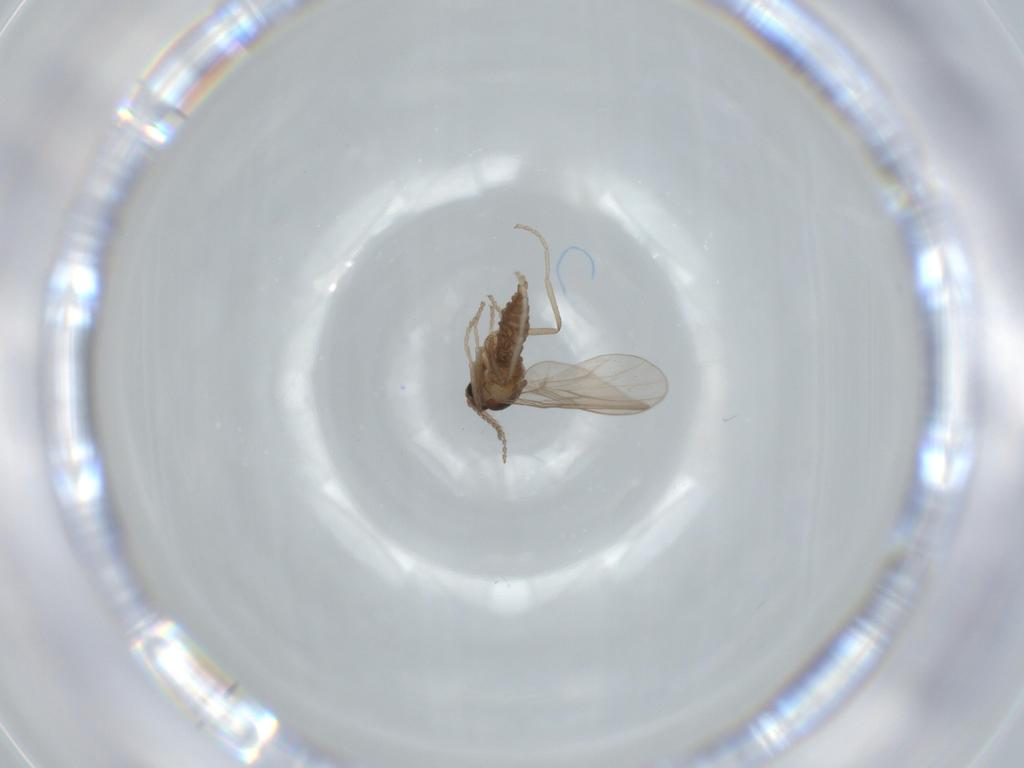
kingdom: Animalia
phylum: Arthropoda
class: Insecta
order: Diptera
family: Cecidomyiidae
